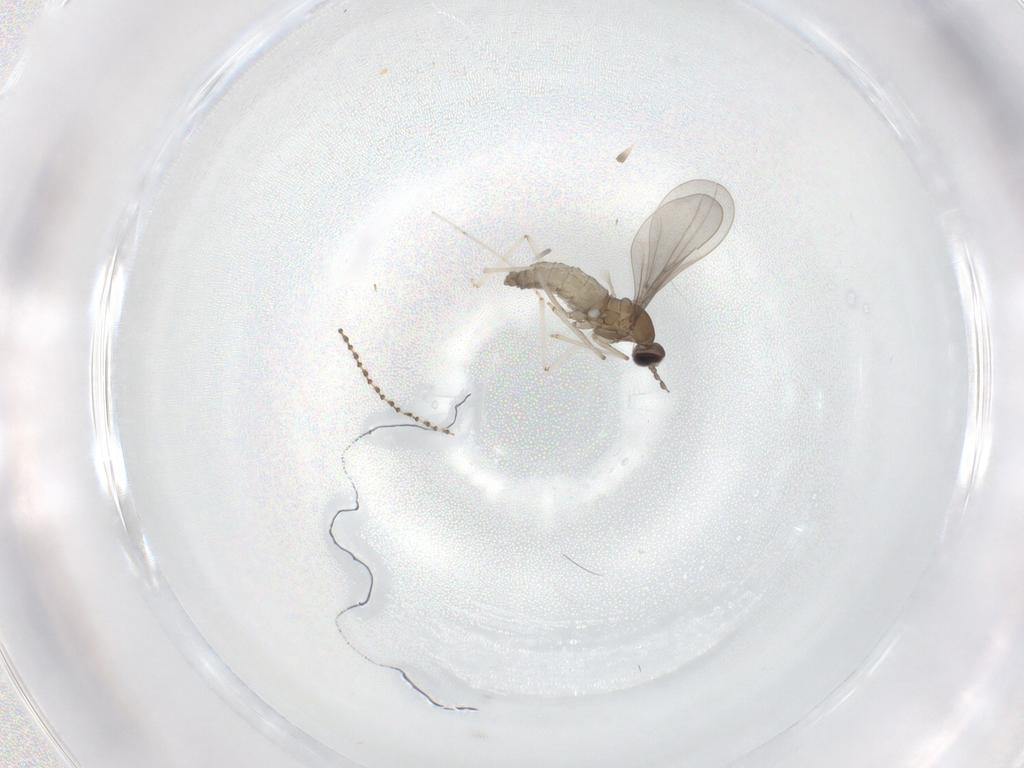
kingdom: Animalia
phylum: Arthropoda
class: Insecta
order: Diptera
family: Chironomidae
